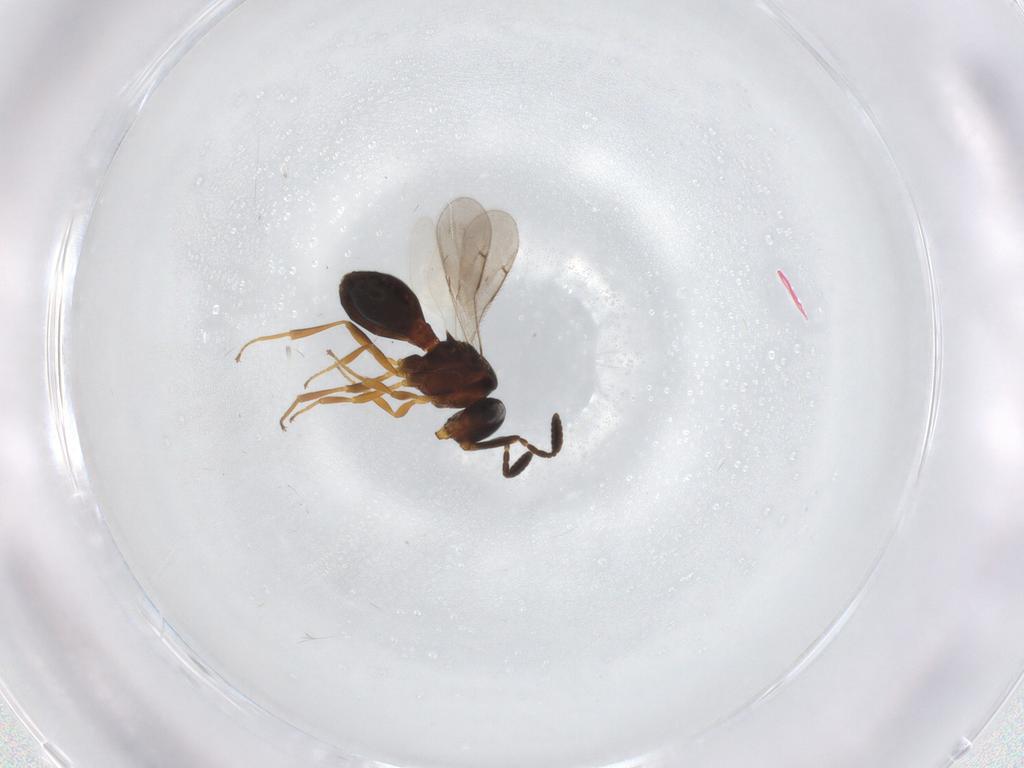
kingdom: Animalia
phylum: Arthropoda
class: Insecta
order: Hymenoptera
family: Scelionidae
